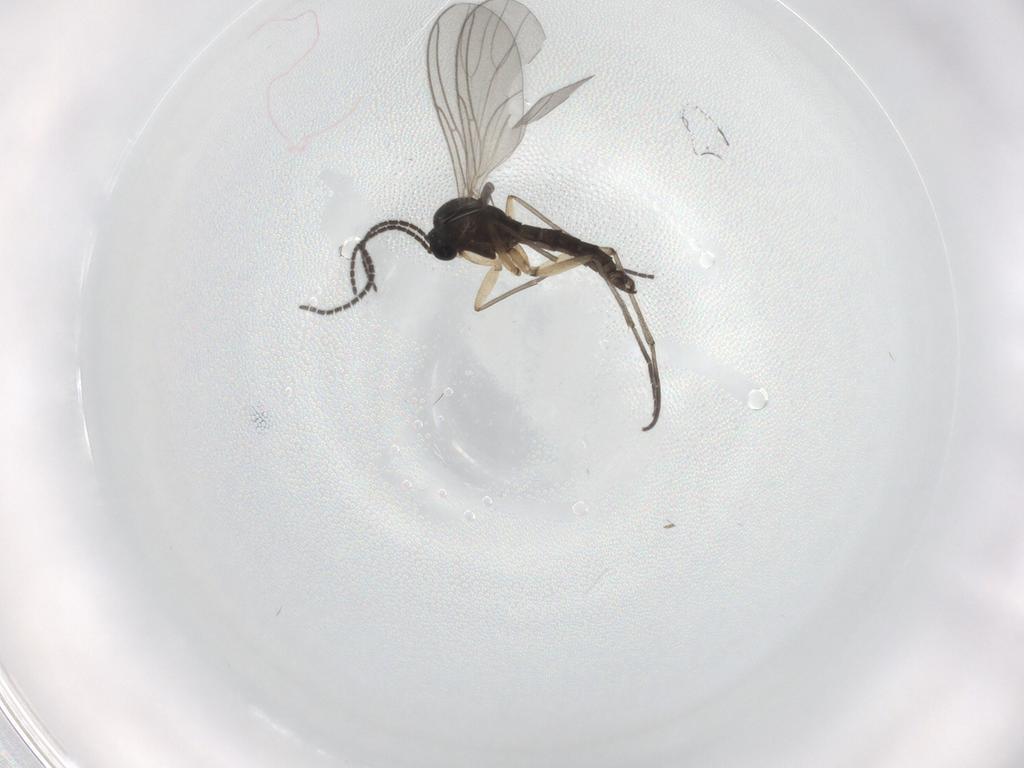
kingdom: Animalia
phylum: Arthropoda
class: Insecta
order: Diptera
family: Sciaridae
